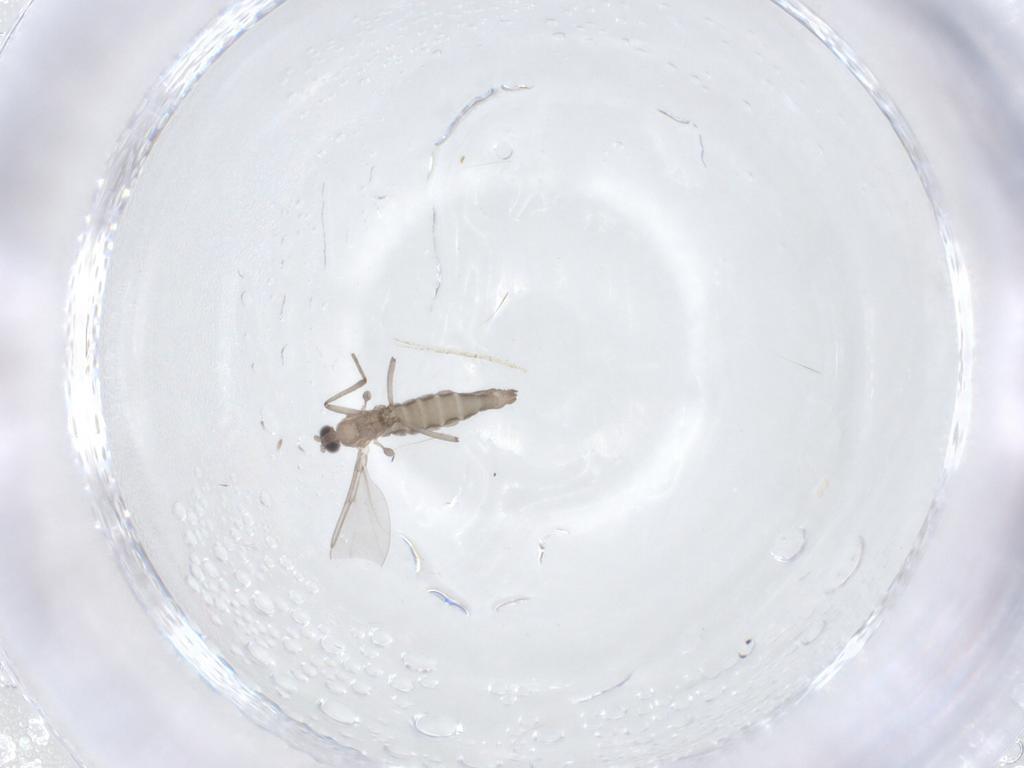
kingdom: Animalia
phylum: Arthropoda
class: Insecta
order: Diptera
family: Cecidomyiidae
